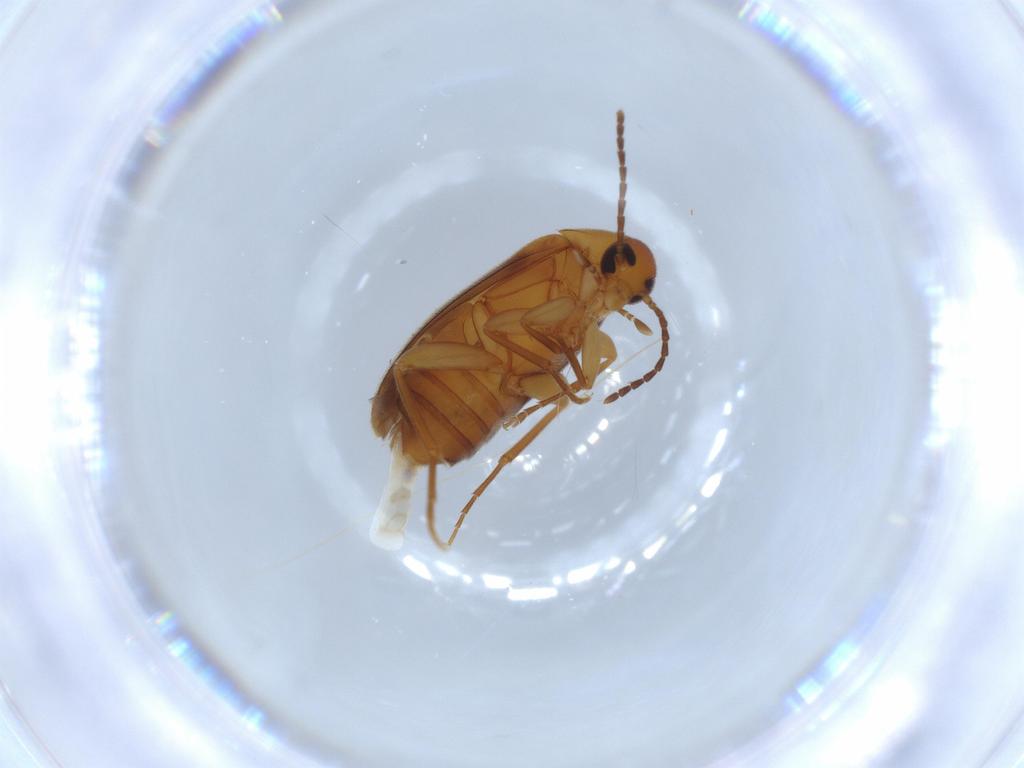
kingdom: Animalia
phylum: Arthropoda
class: Insecta
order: Coleoptera
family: Scraptiidae
